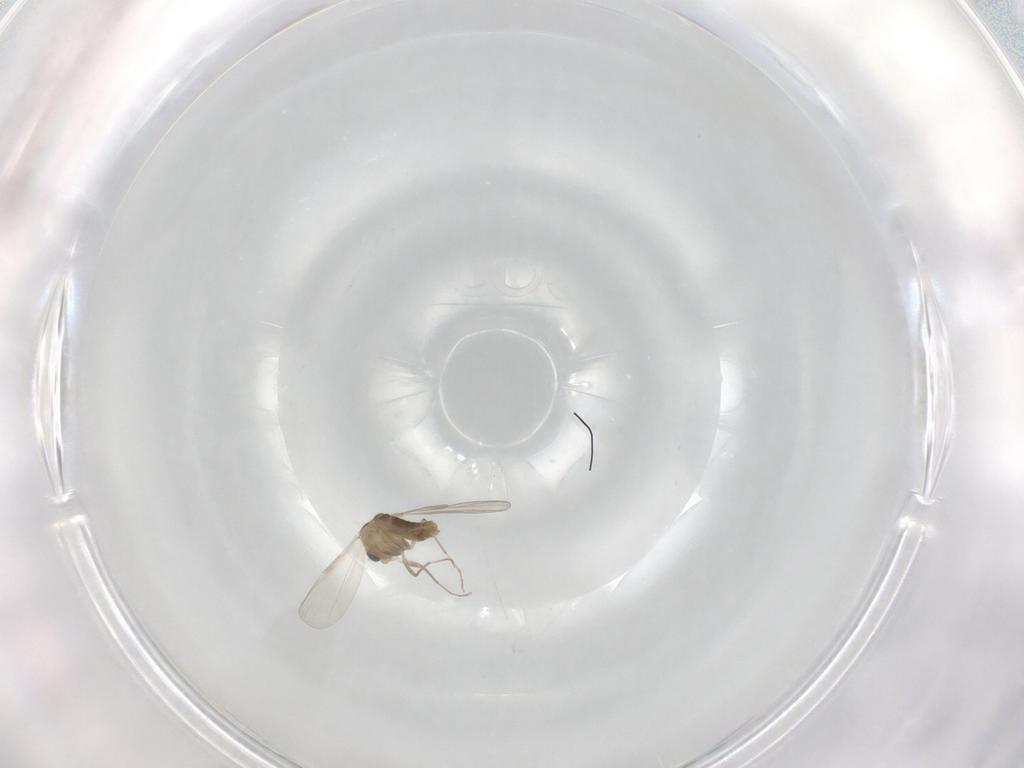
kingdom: Animalia
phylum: Arthropoda
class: Insecta
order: Diptera
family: Chironomidae
